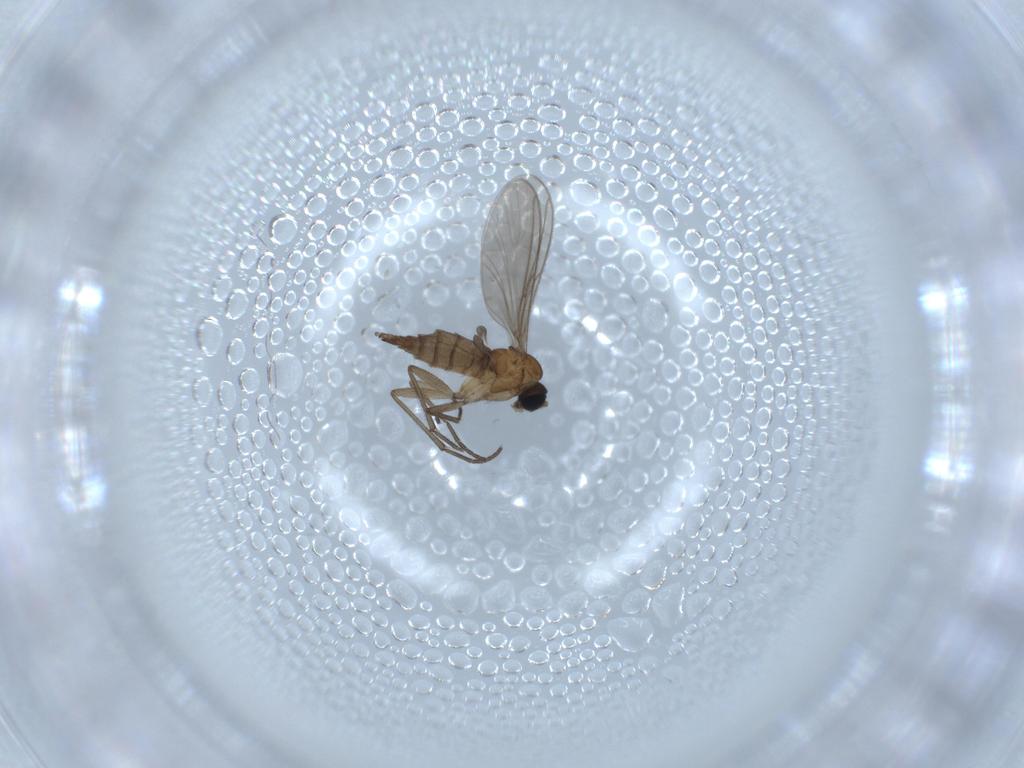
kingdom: Animalia
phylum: Arthropoda
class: Insecta
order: Diptera
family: Sciaridae
